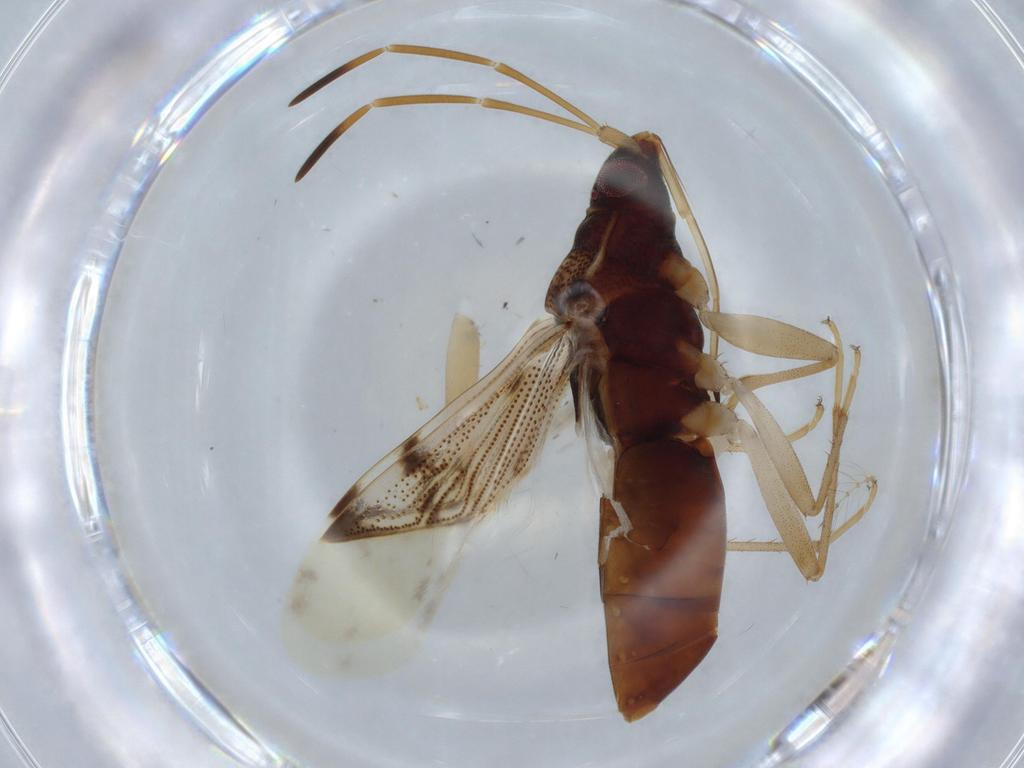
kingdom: Animalia
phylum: Arthropoda
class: Insecta
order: Hemiptera
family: Rhyparochromidae
